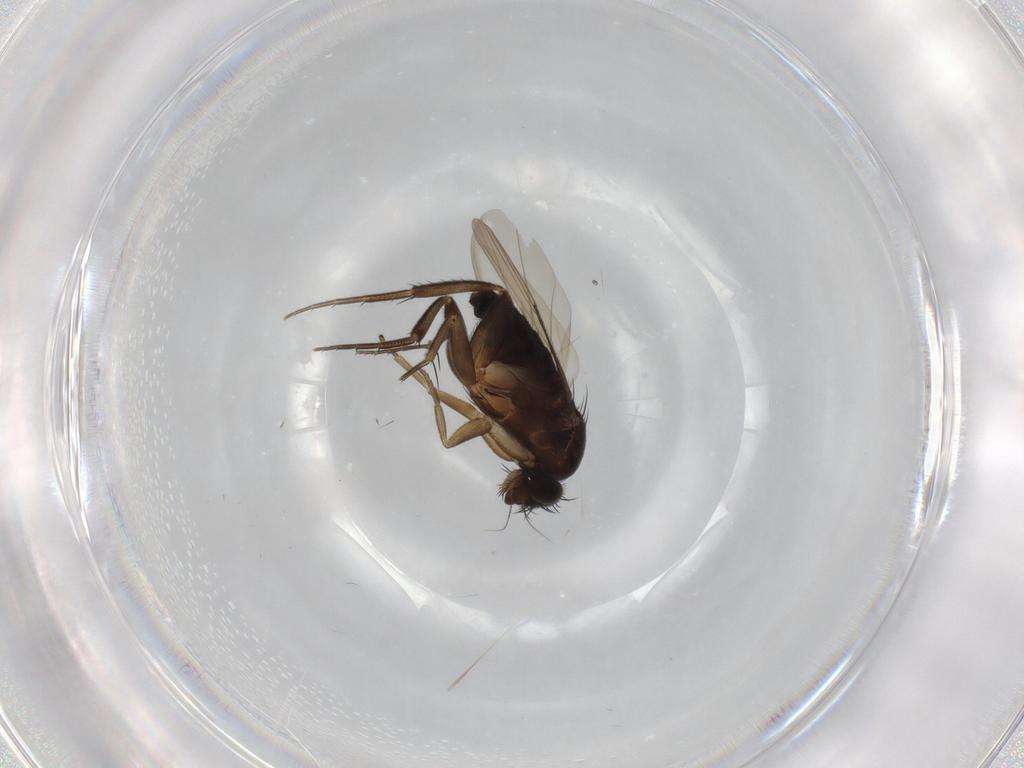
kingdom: Animalia
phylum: Arthropoda
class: Insecta
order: Diptera
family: Phoridae
